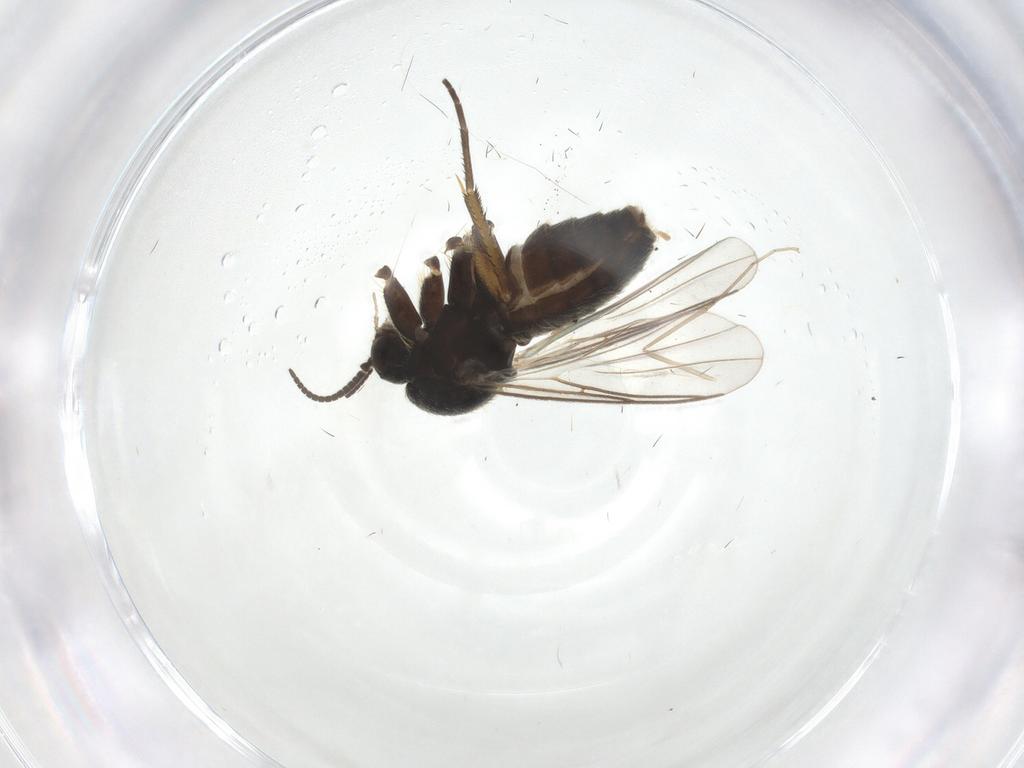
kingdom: Animalia
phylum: Arthropoda
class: Insecta
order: Diptera
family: Mycetophilidae
